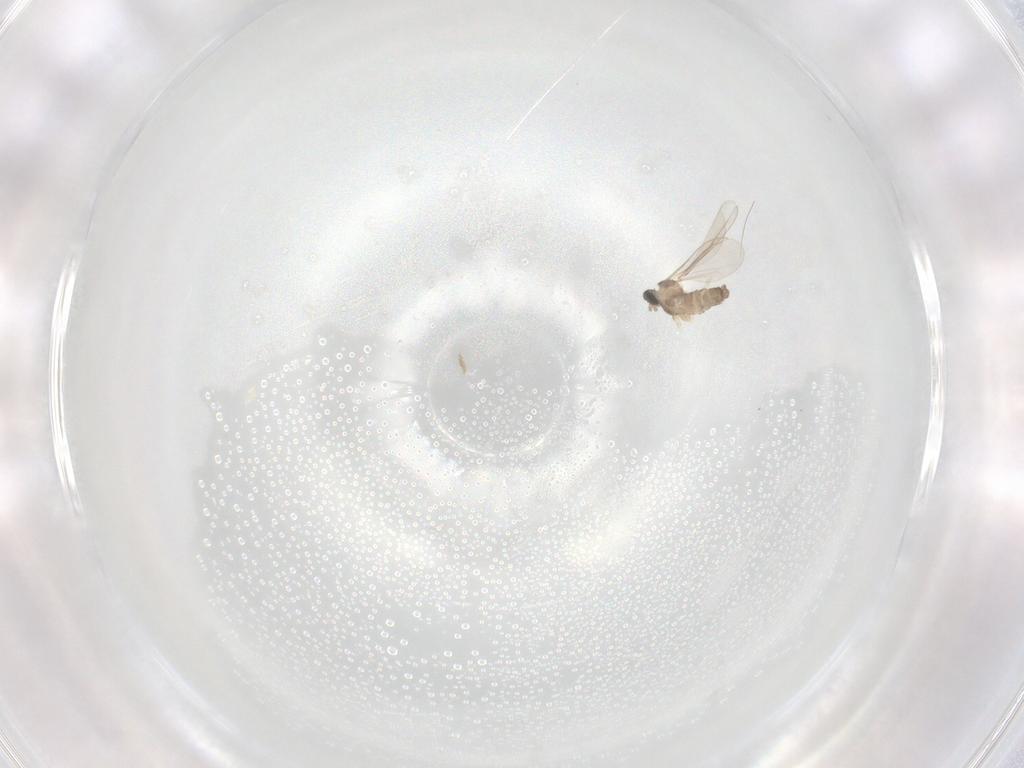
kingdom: Animalia
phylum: Arthropoda
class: Insecta
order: Diptera
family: Cecidomyiidae
